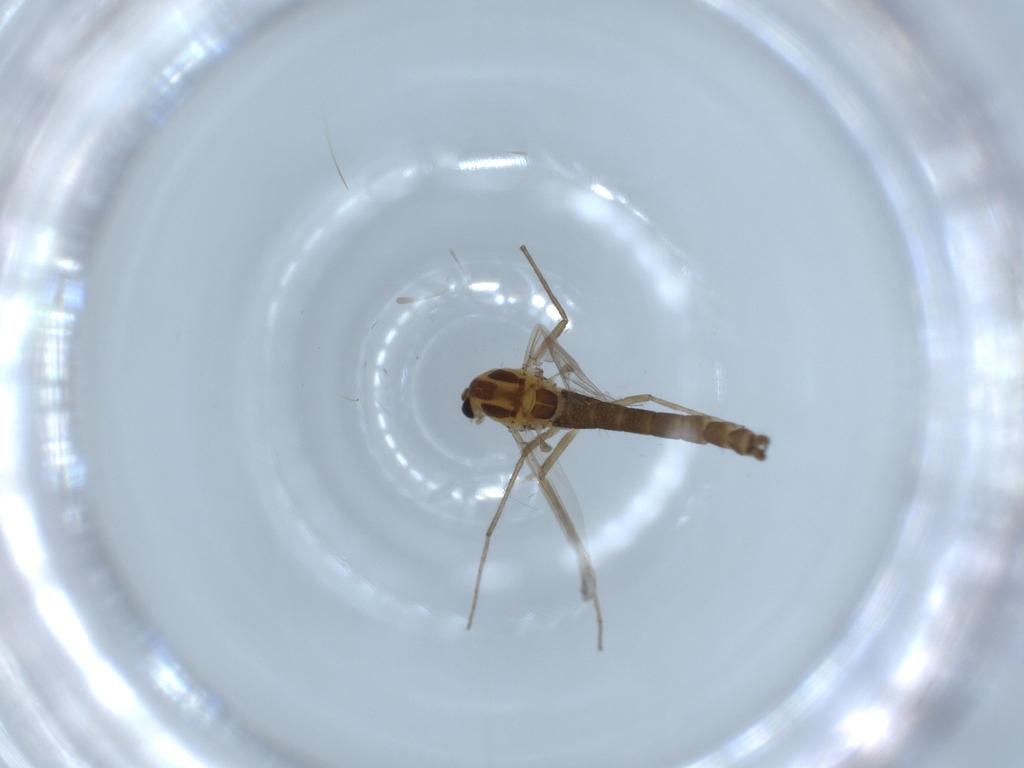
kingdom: Animalia
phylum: Arthropoda
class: Insecta
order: Diptera
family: Chironomidae
